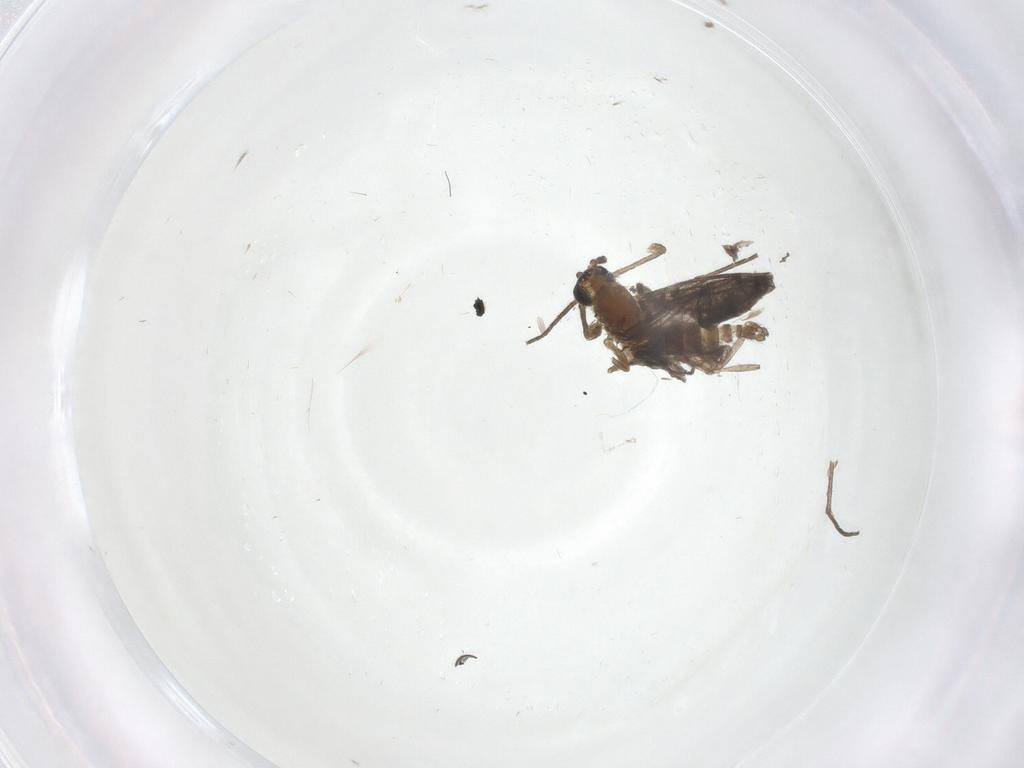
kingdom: Animalia
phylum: Arthropoda
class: Insecta
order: Diptera
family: Sciaridae
